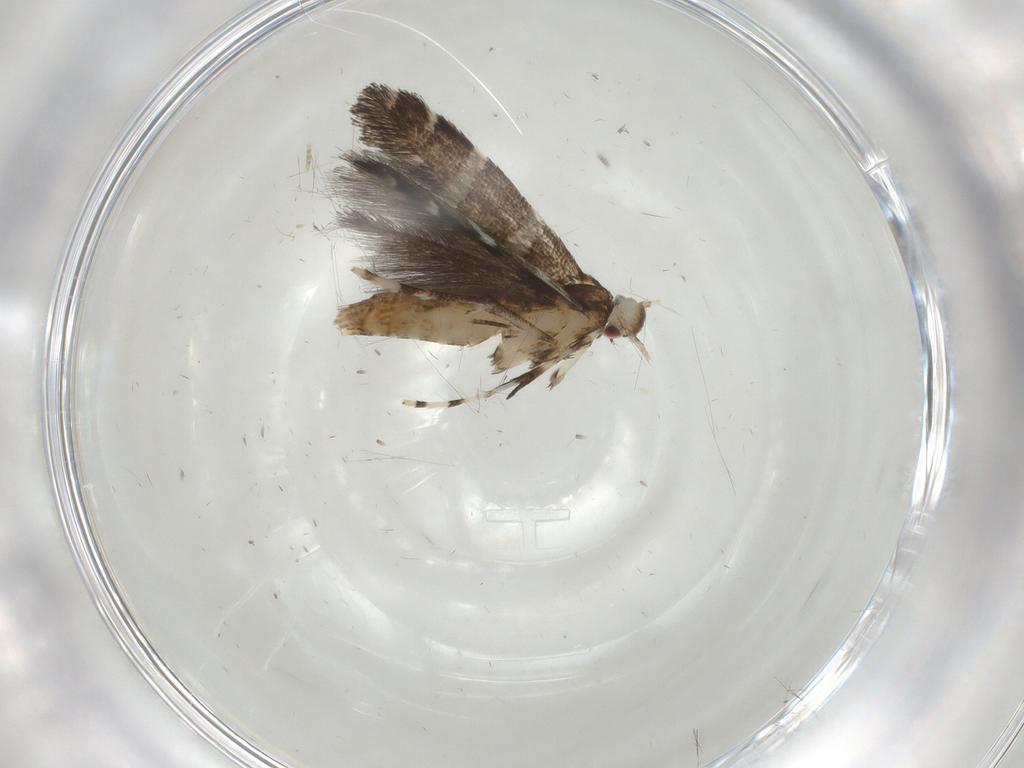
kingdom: Animalia
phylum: Arthropoda
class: Insecta
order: Lepidoptera
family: Gracillariidae
